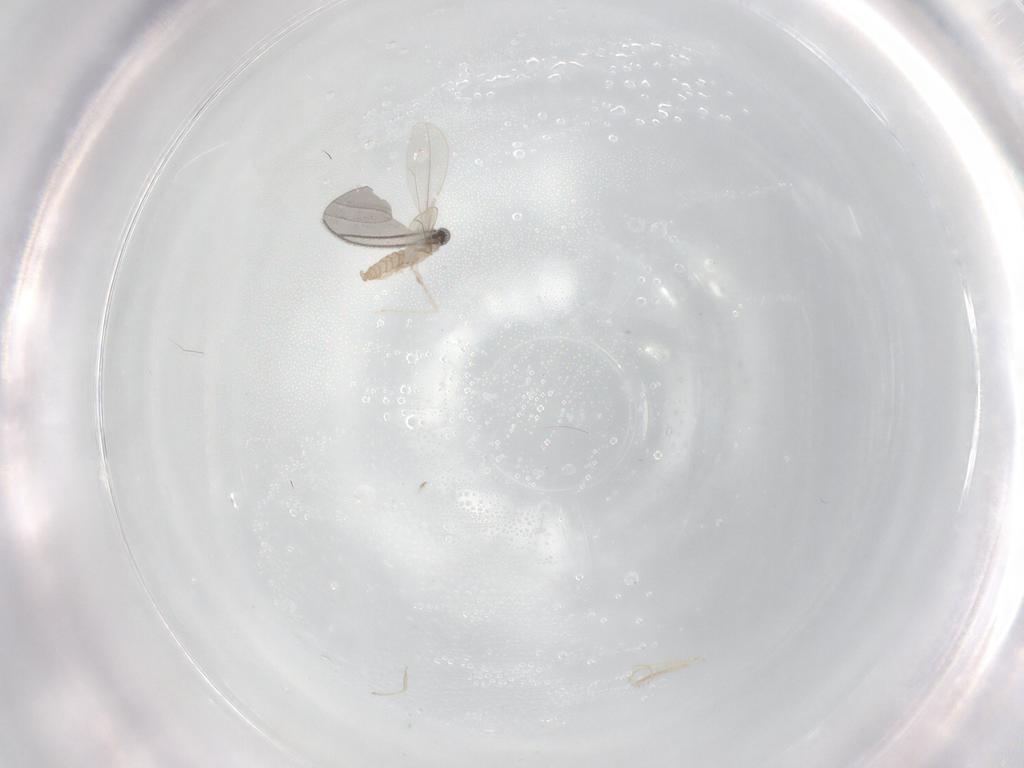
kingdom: Animalia
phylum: Arthropoda
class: Insecta
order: Diptera
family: Sciaridae
